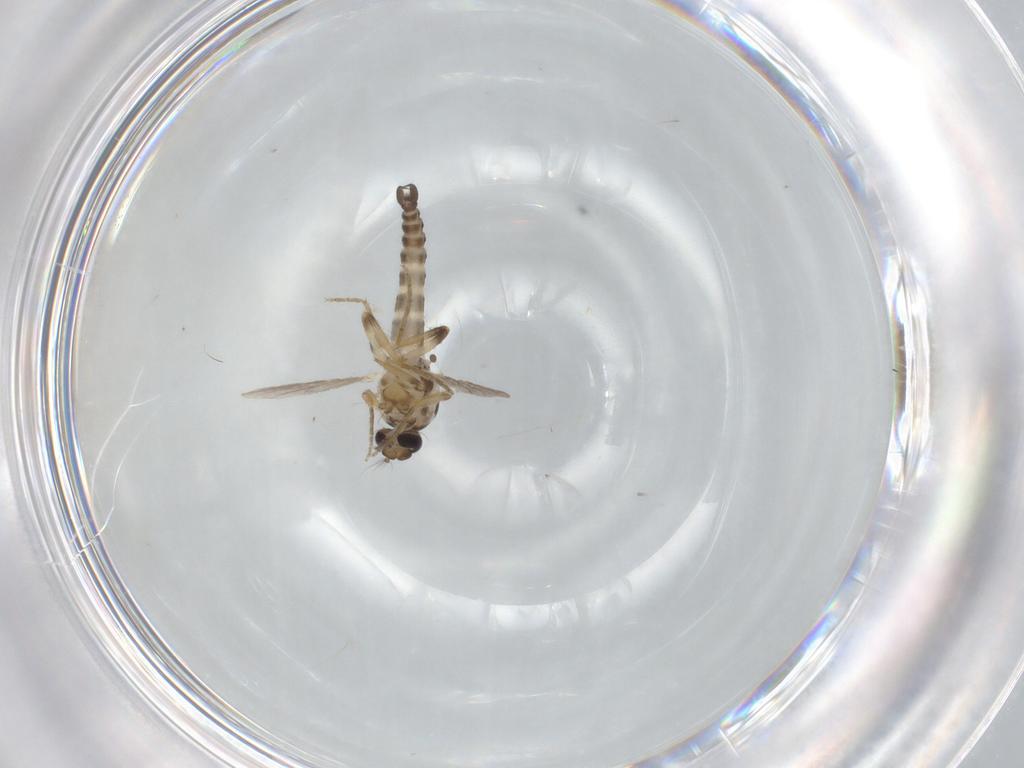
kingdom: Animalia
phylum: Arthropoda
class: Insecta
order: Diptera
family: Ceratopogonidae
